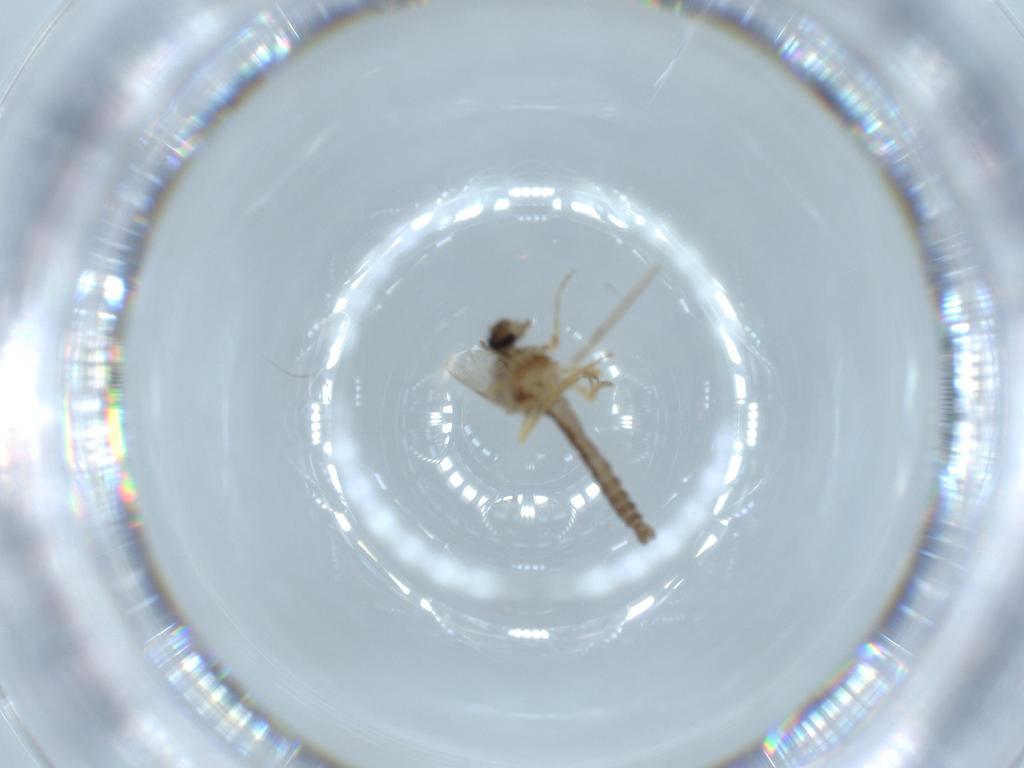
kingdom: Animalia
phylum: Arthropoda
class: Insecta
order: Diptera
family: Ceratopogonidae
